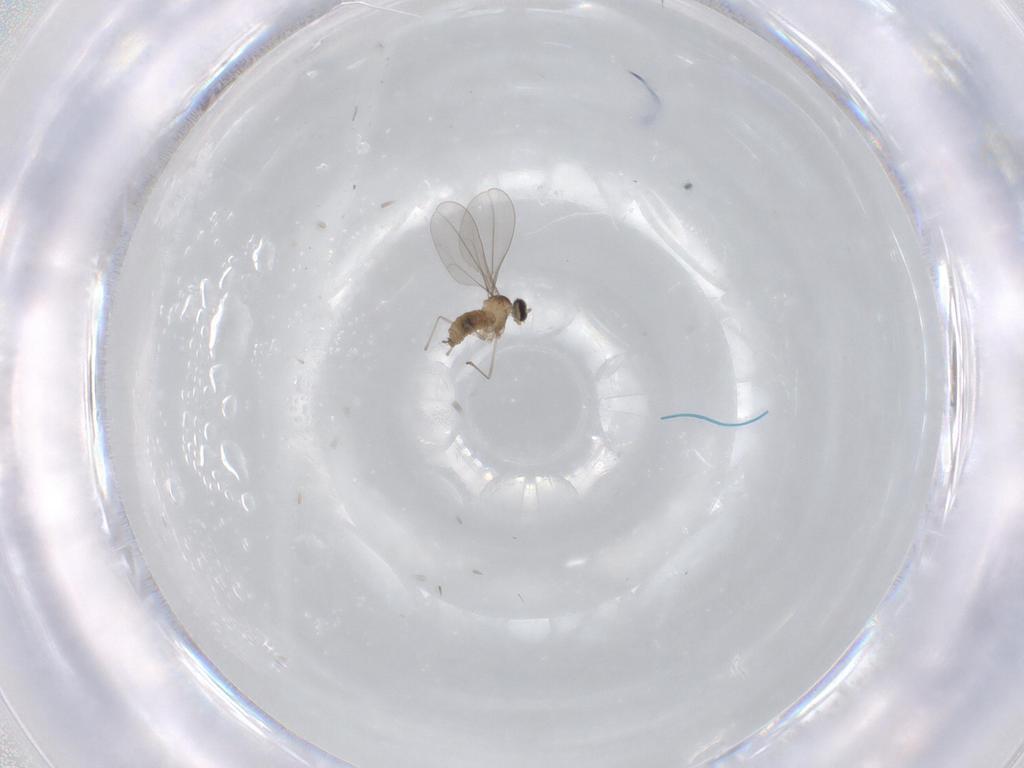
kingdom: Animalia
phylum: Arthropoda
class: Insecta
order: Diptera
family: Cecidomyiidae
